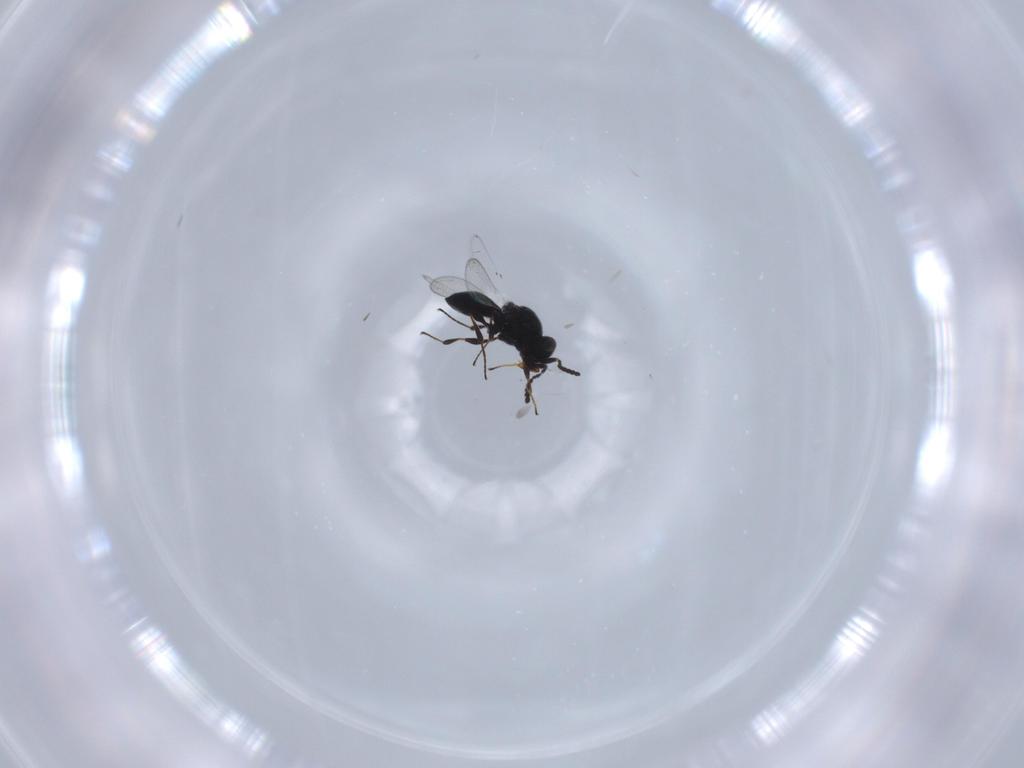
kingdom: Animalia
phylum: Arthropoda
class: Insecta
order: Hymenoptera
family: Platygastridae
